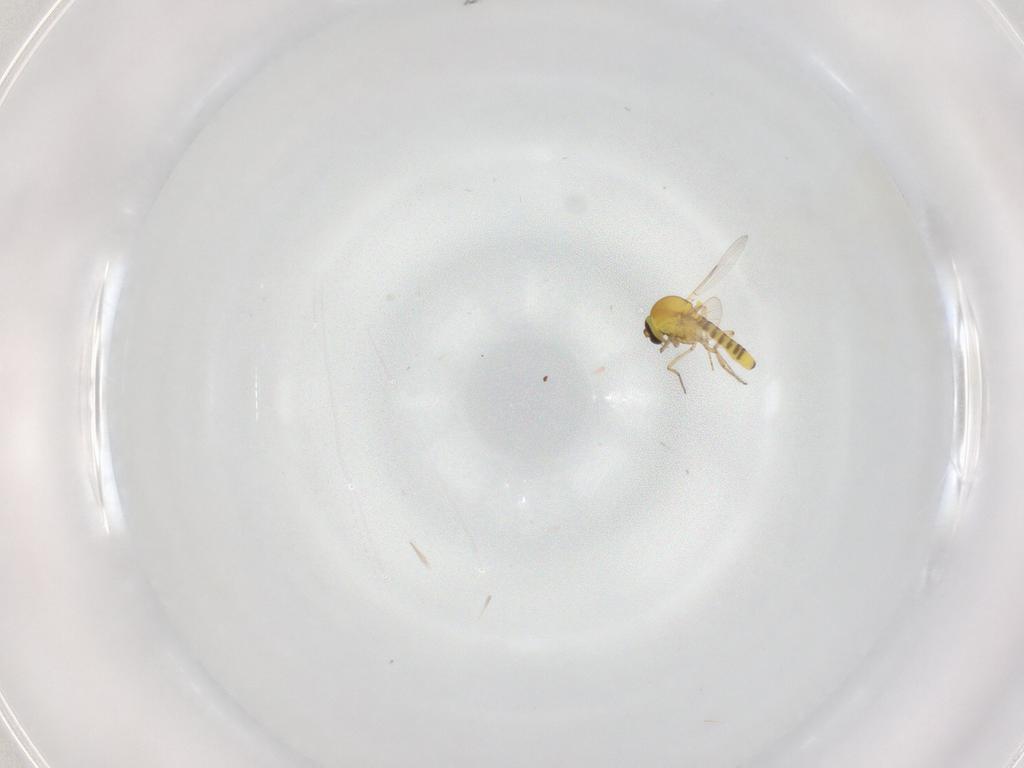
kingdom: Animalia
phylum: Arthropoda
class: Insecta
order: Diptera
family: Ceratopogonidae
